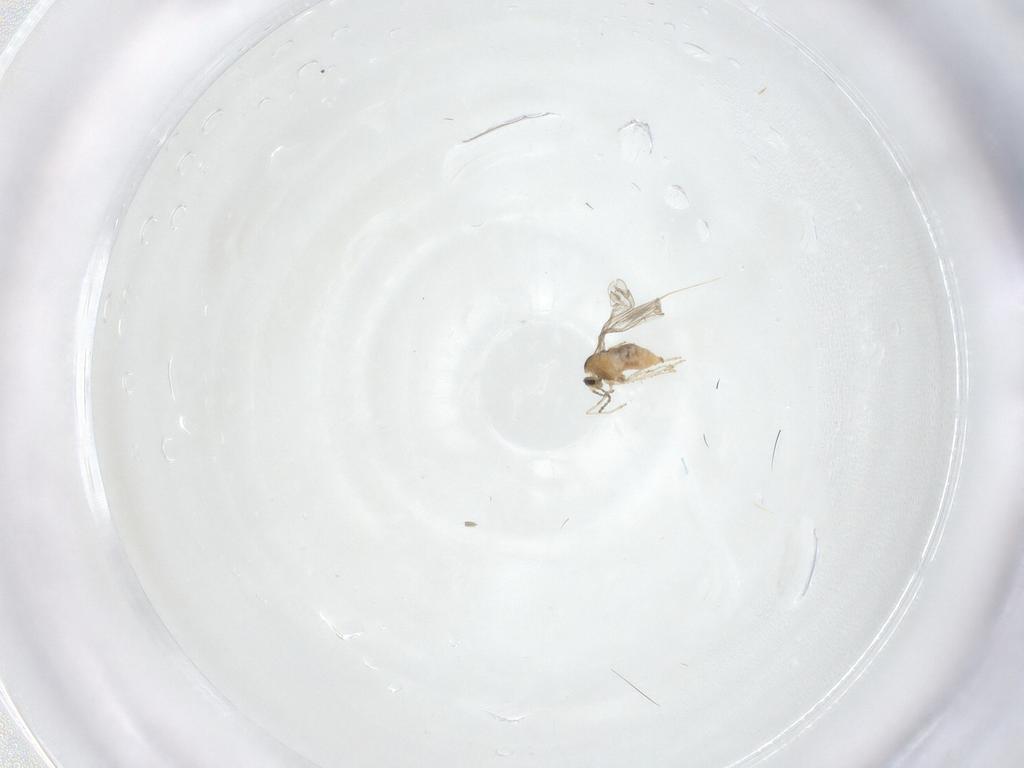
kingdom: Animalia
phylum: Arthropoda
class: Insecta
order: Diptera
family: Cecidomyiidae
